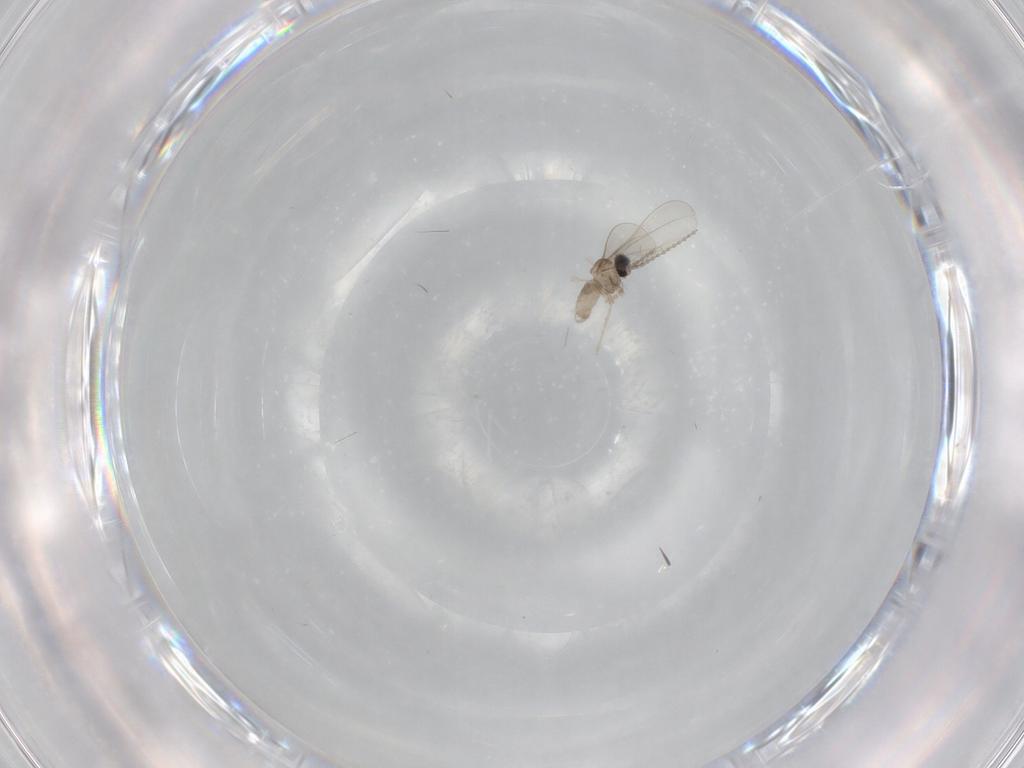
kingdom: Animalia
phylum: Arthropoda
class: Insecta
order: Diptera
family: Cecidomyiidae
